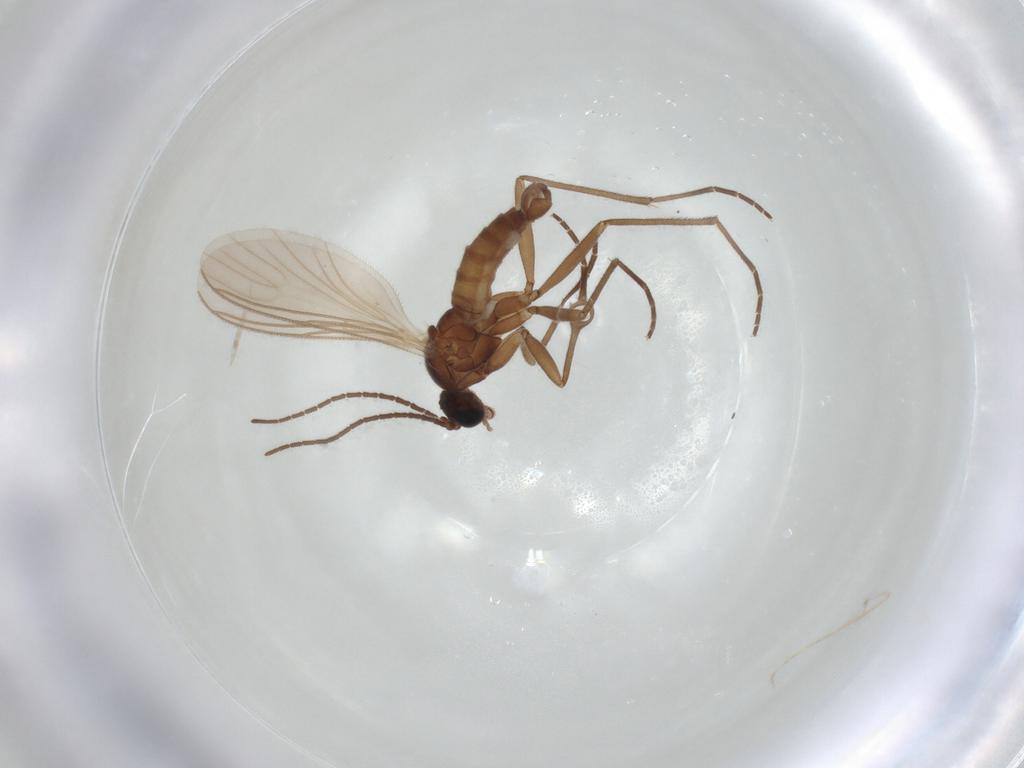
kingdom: Animalia
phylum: Arthropoda
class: Insecta
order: Diptera
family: Sciaridae
